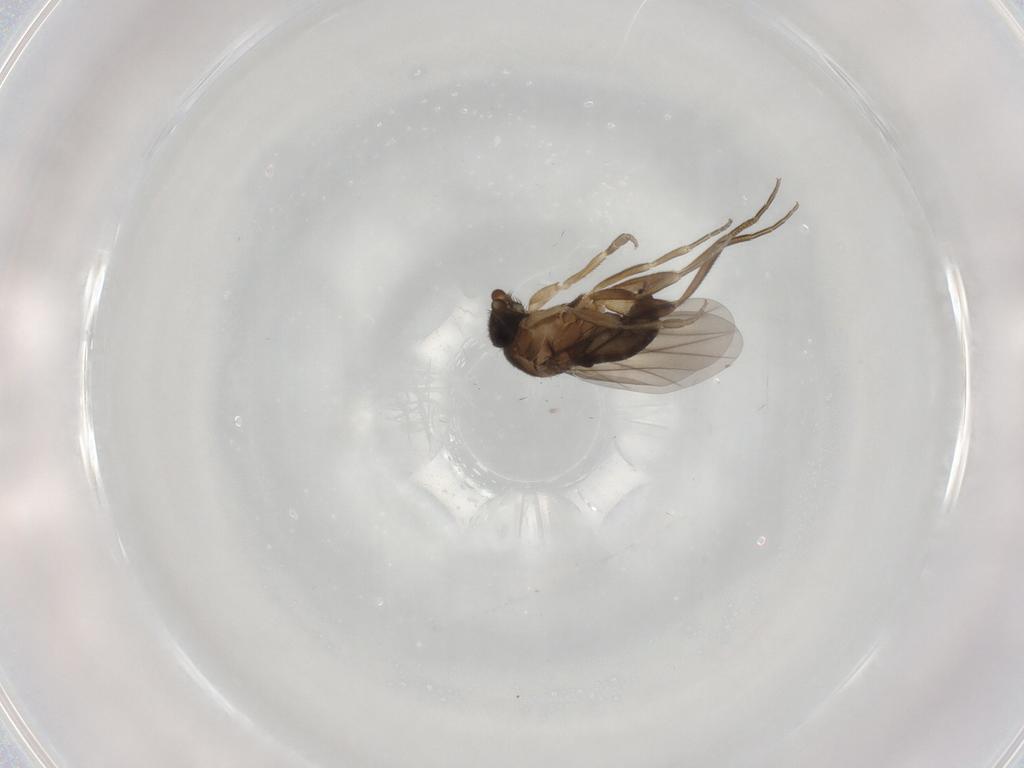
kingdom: Animalia
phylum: Arthropoda
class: Insecta
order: Diptera
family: Phoridae
